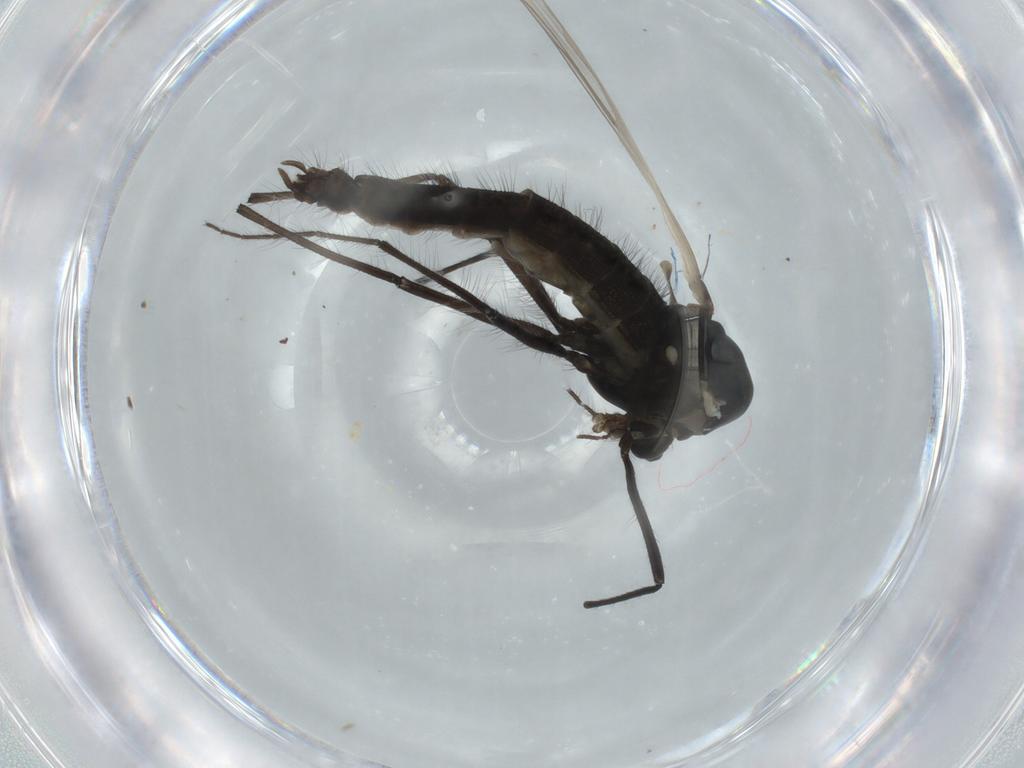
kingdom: Animalia
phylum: Arthropoda
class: Insecta
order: Diptera
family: Chironomidae
